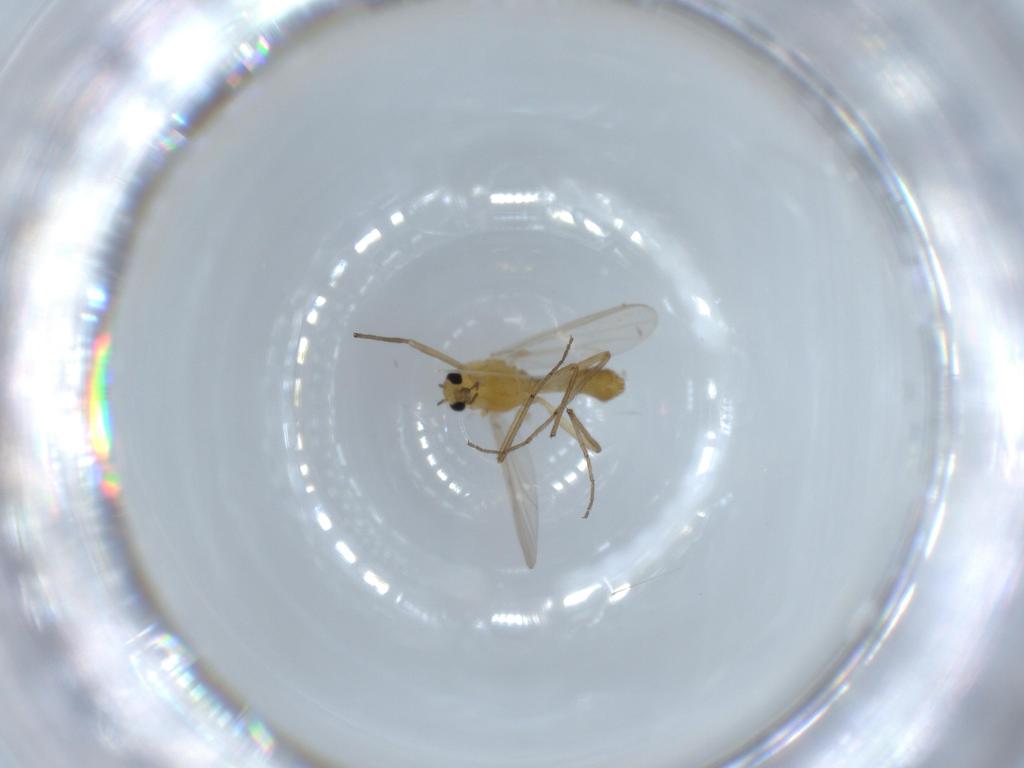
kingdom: Animalia
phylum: Arthropoda
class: Insecta
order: Diptera
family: Chironomidae
